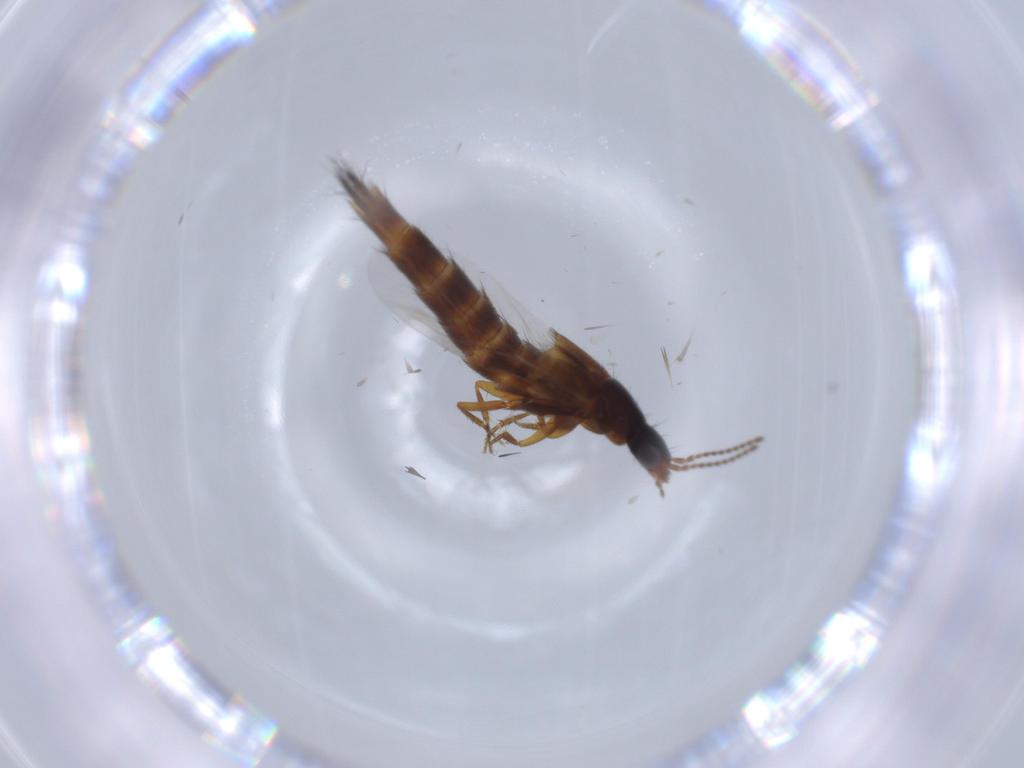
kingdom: Animalia
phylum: Arthropoda
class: Insecta
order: Coleoptera
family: Staphylinidae
